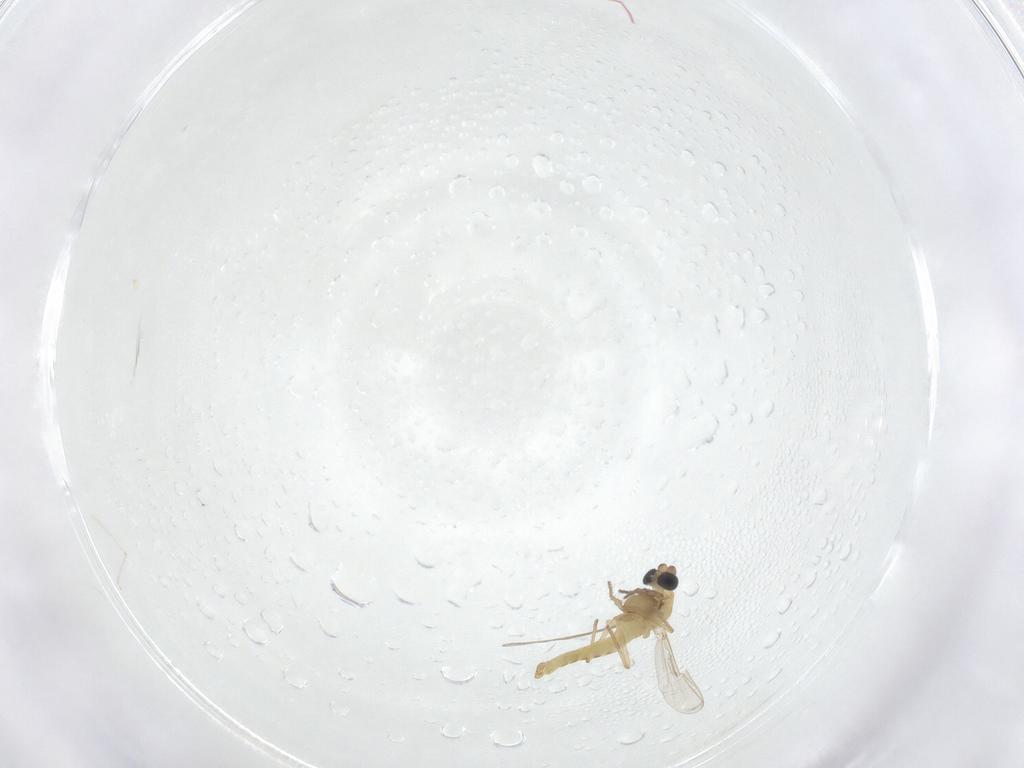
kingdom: Animalia
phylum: Arthropoda
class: Insecta
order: Diptera
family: Chironomidae
